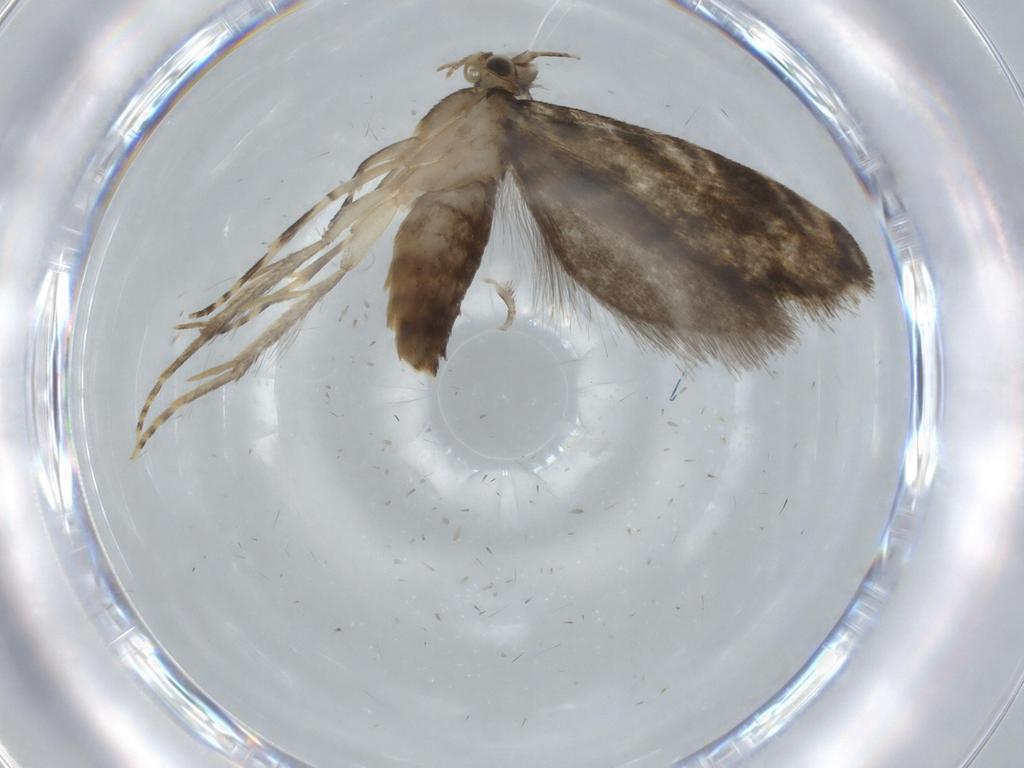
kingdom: Animalia
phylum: Arthropoda
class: Insecta
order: Lepidoptera
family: Tineidae
